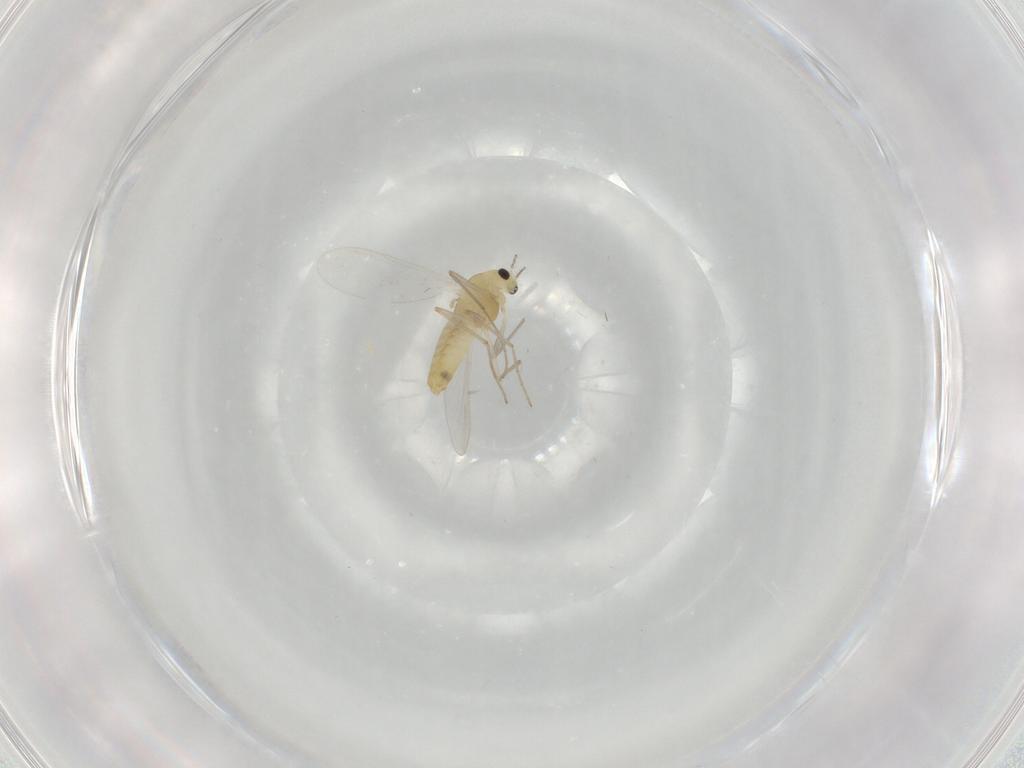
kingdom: Animalia
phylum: Arthropoda
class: Insecta
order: Diptera
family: Chironomidae
